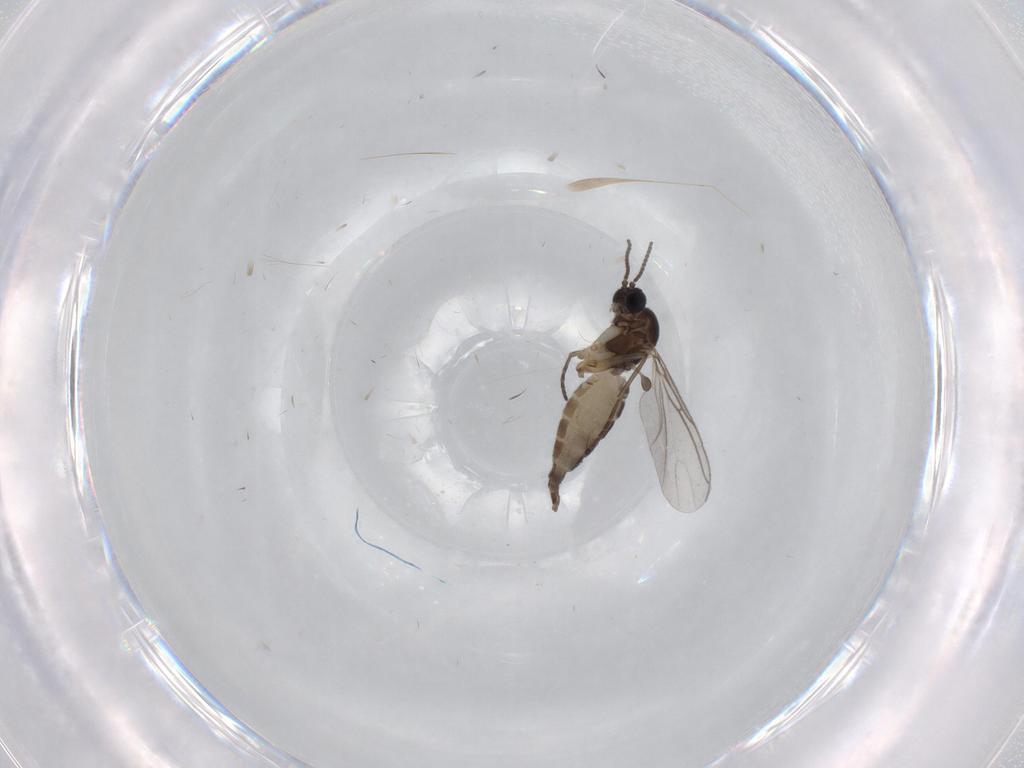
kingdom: Animalia
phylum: Arthropoda
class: Insecta
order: Diptera
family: Sciaridae
